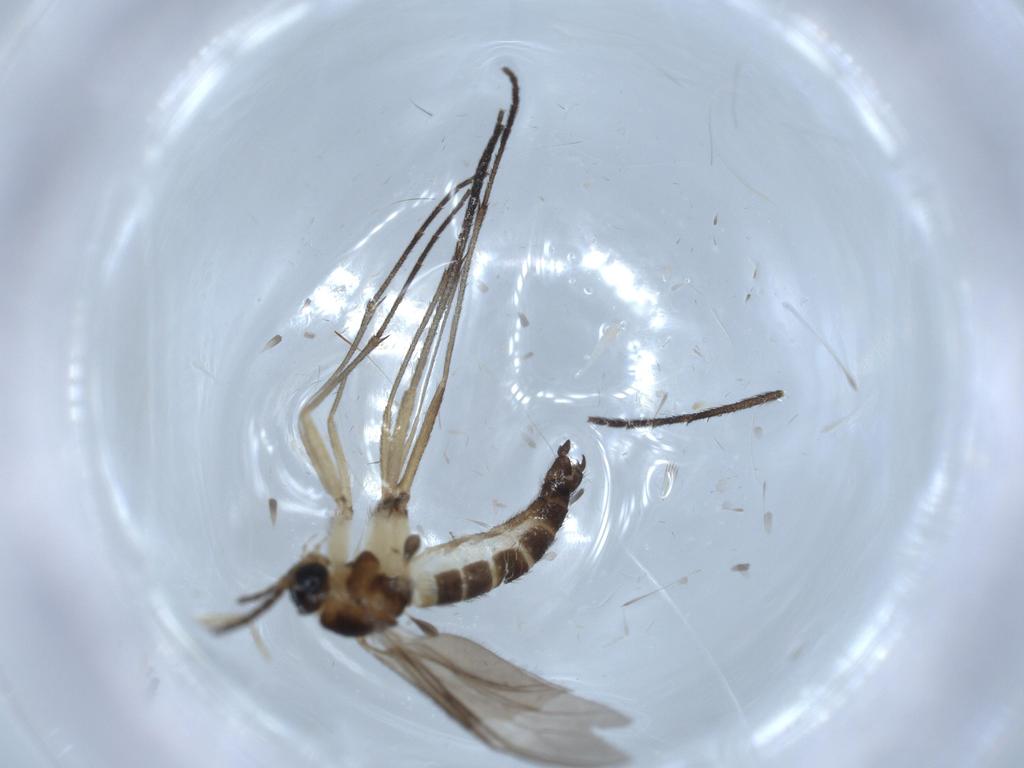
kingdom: Animalia
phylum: Arthropoda
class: Insecta
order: Diptera
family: Sciaridae
